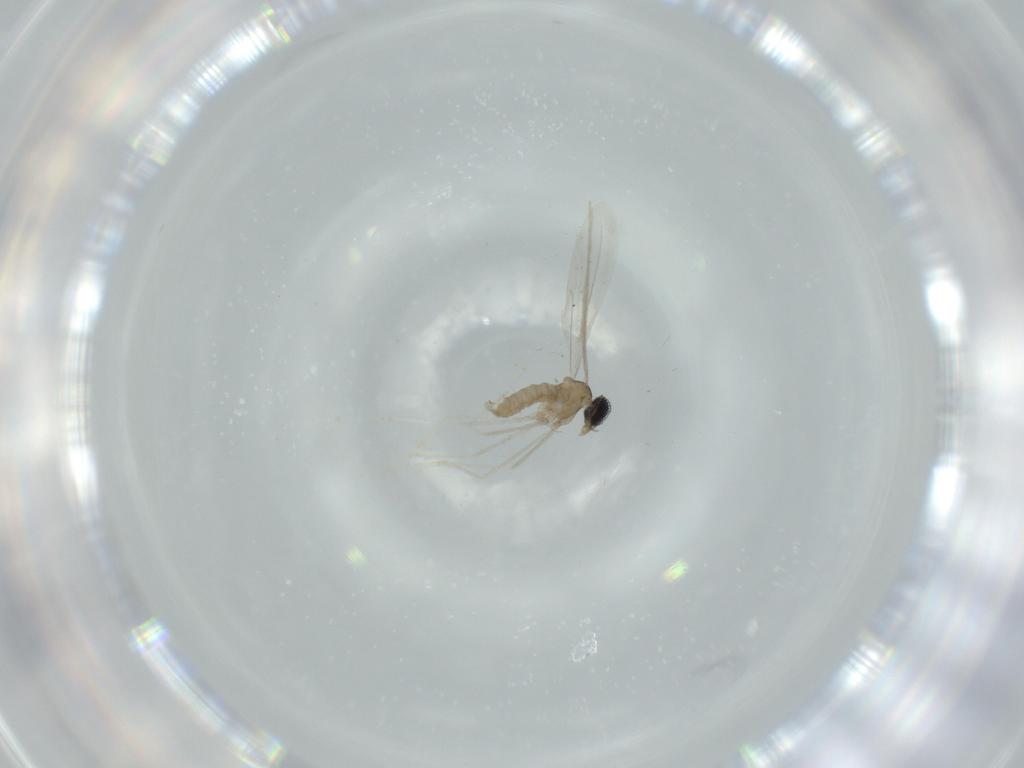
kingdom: Animalia
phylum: Arthropoda
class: Insecta
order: Diptera
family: Cecidomyiidae
